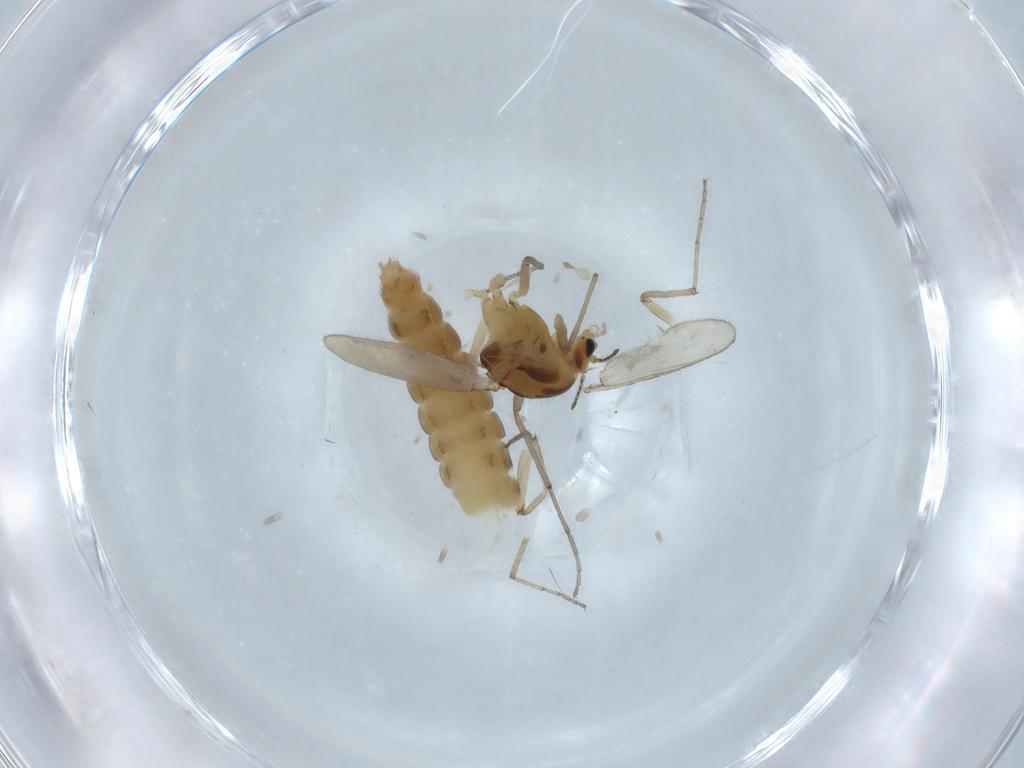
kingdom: Animalia
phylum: Arthropoda
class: Insecta
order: Diptera
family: Chironomidae
